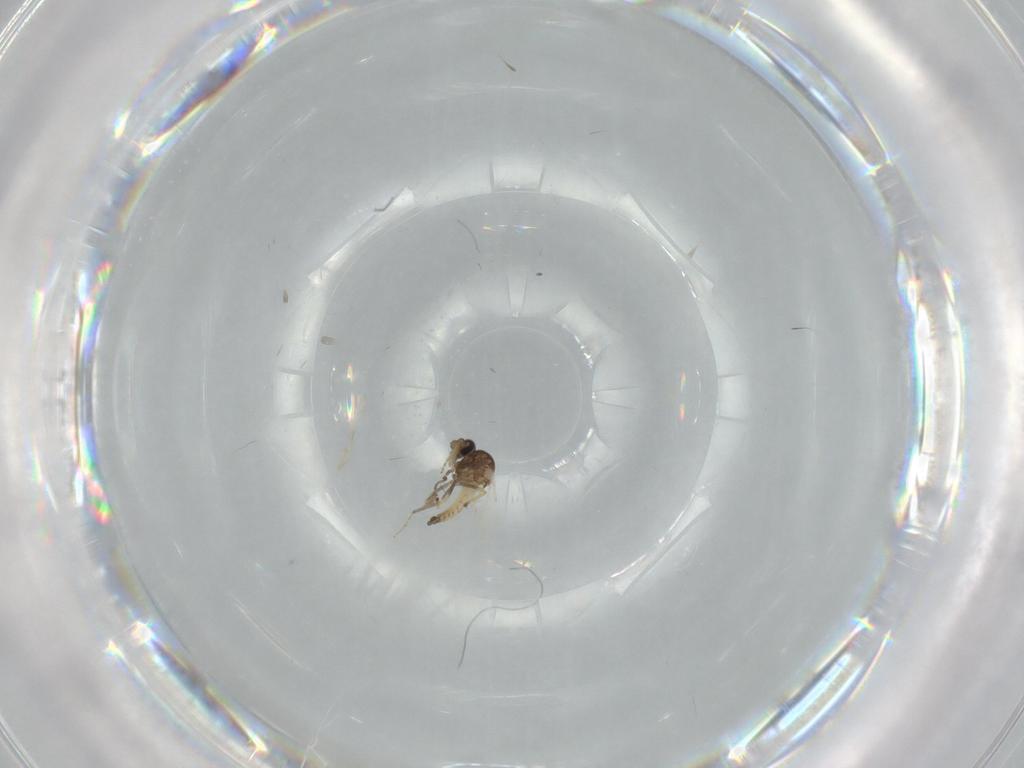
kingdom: Animalia
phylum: Arthropoda
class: Insecta
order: Diptera
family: Ceratopogonidae
